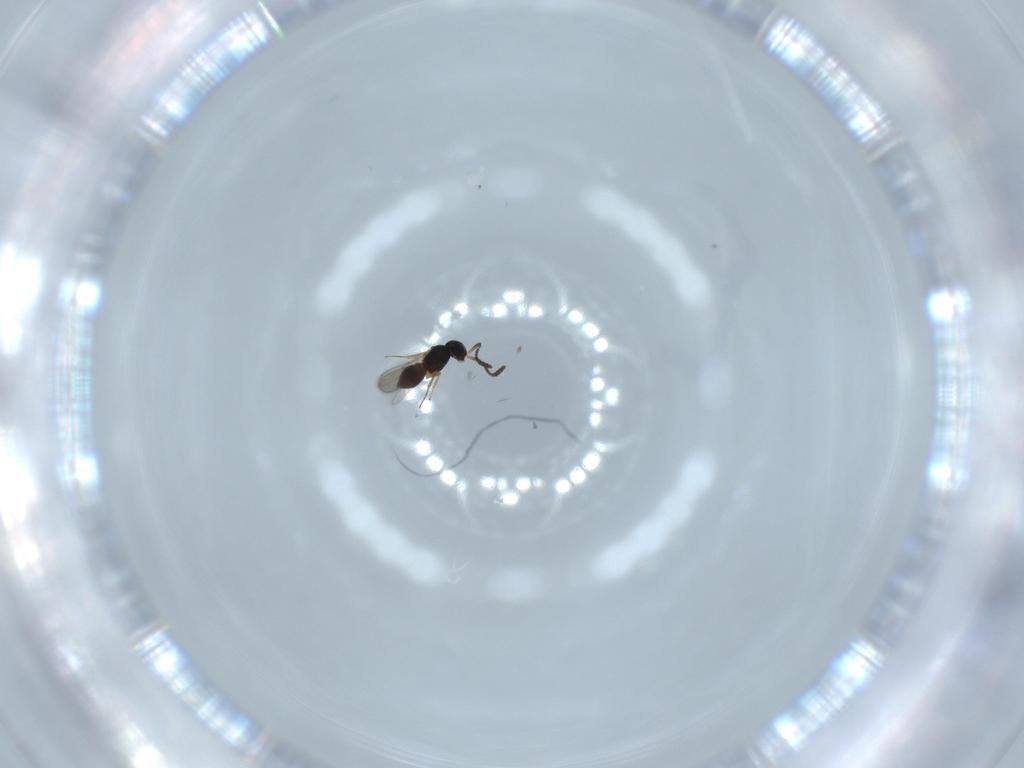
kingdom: Animalia
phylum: Arthropoda
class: Insecta
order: Hymenoptera
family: Scelionidae
